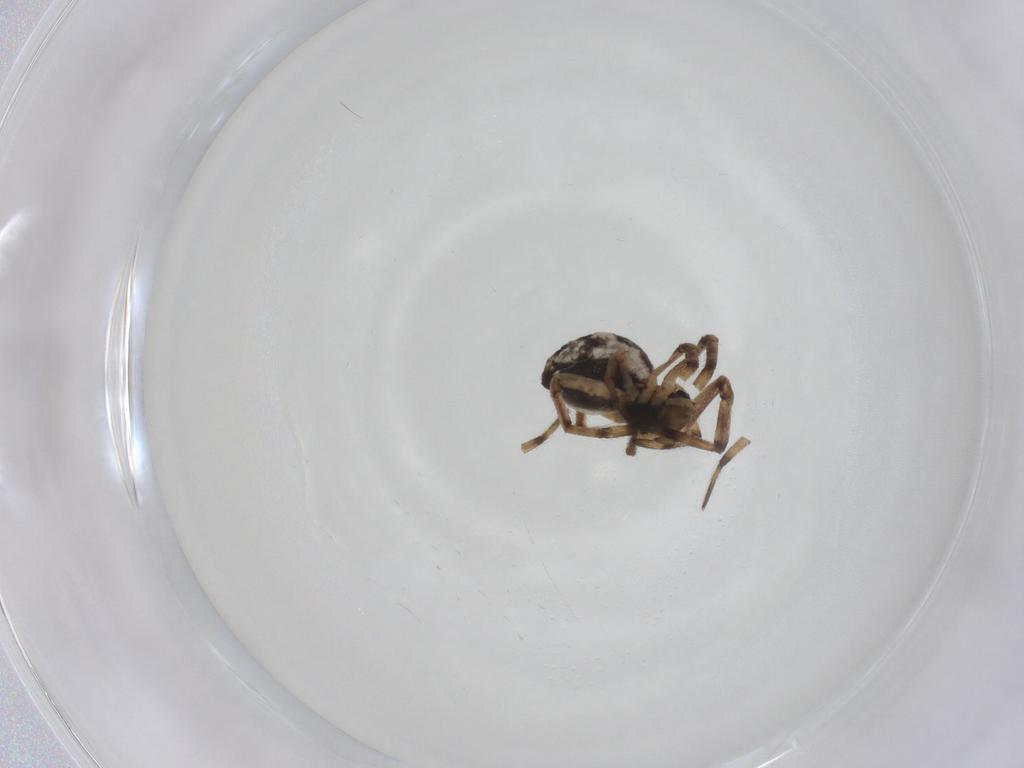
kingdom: Animalia
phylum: Arthropoda
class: Arachnida
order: Araneae
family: Tetragnathidae
